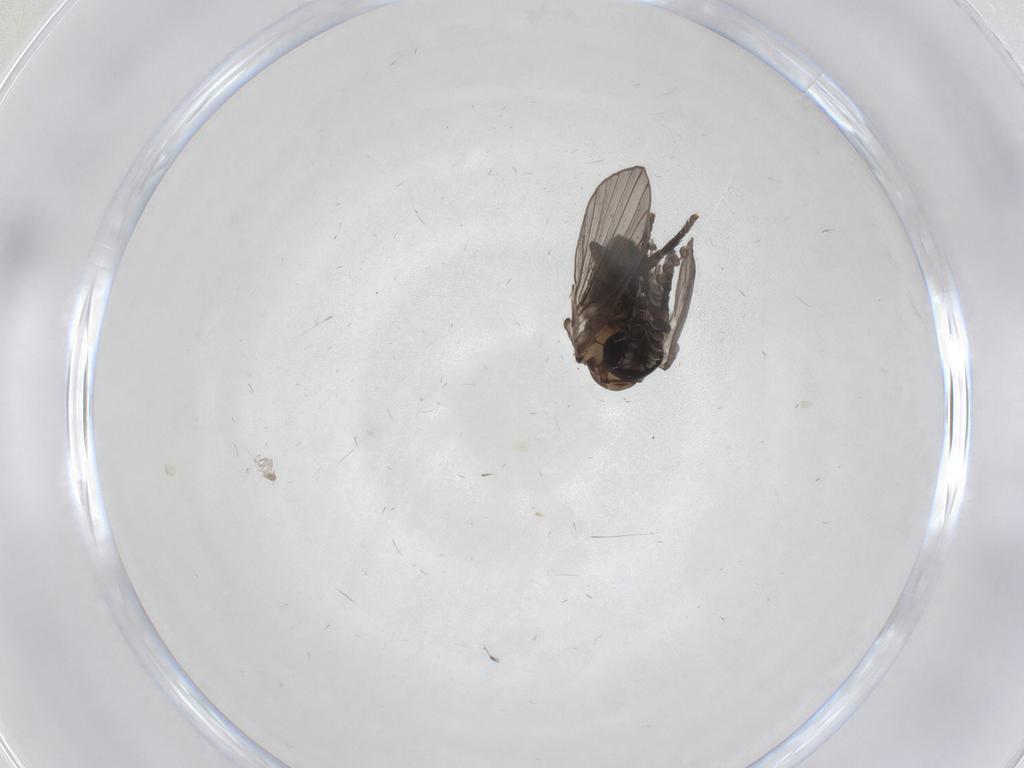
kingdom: Animalia
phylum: Arthropoda
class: Insecta
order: Diptera
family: Psychodidae
